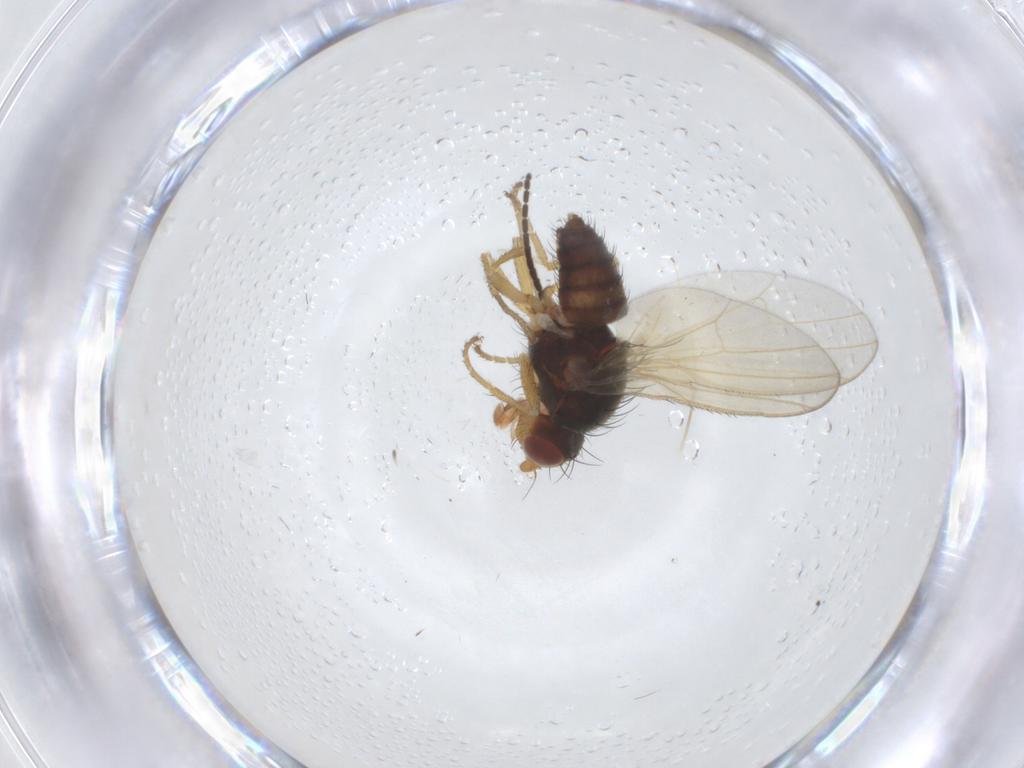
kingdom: Animalia
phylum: Arthropoda
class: Insecta
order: Diptera
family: Heleomyzidae
